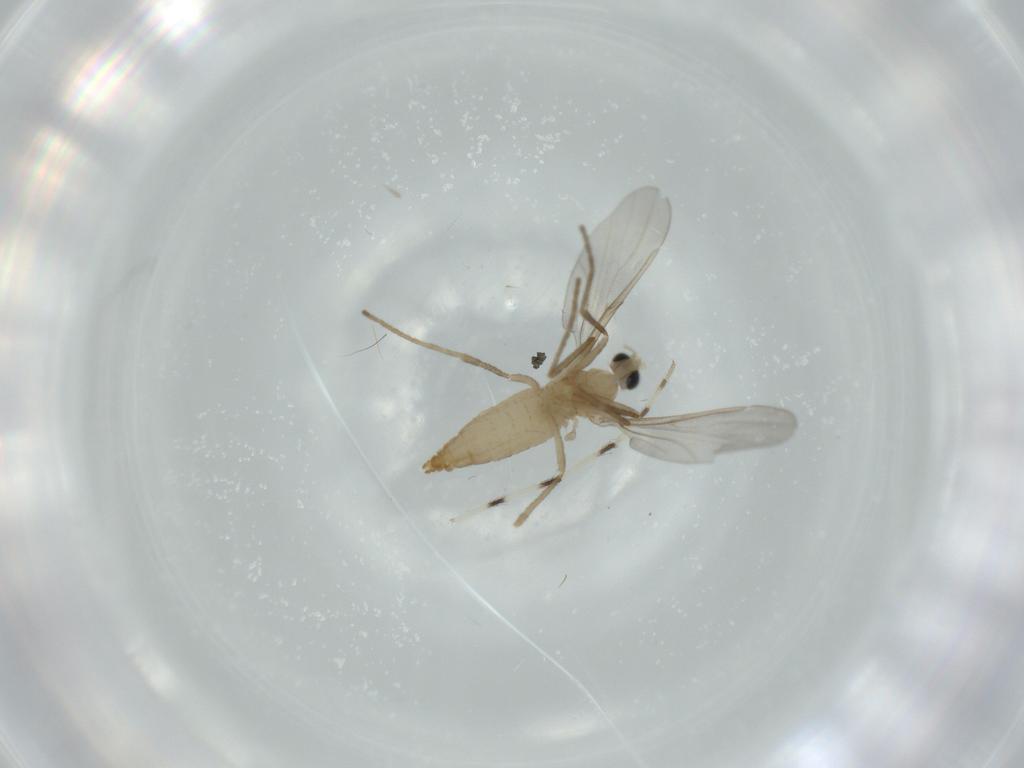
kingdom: Animalia
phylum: Arthropoda
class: Insecta
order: Diptera
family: Chironomidae
